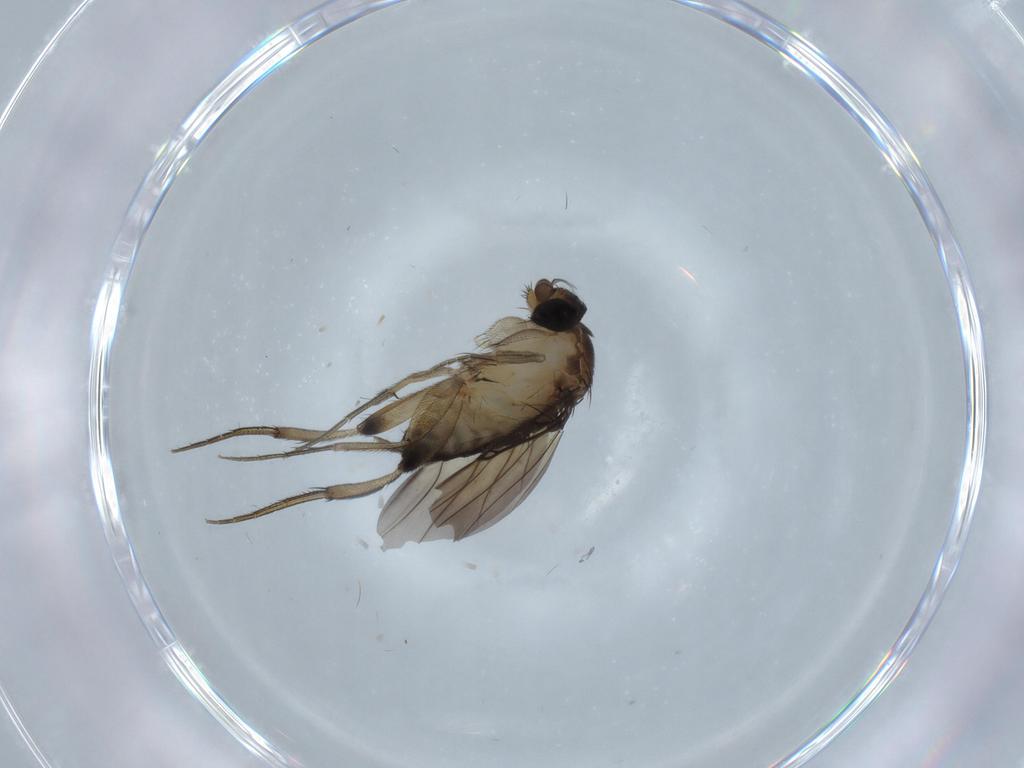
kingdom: Animalia
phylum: Arthropoda
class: Insecta
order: Diptera
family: Phoridae
